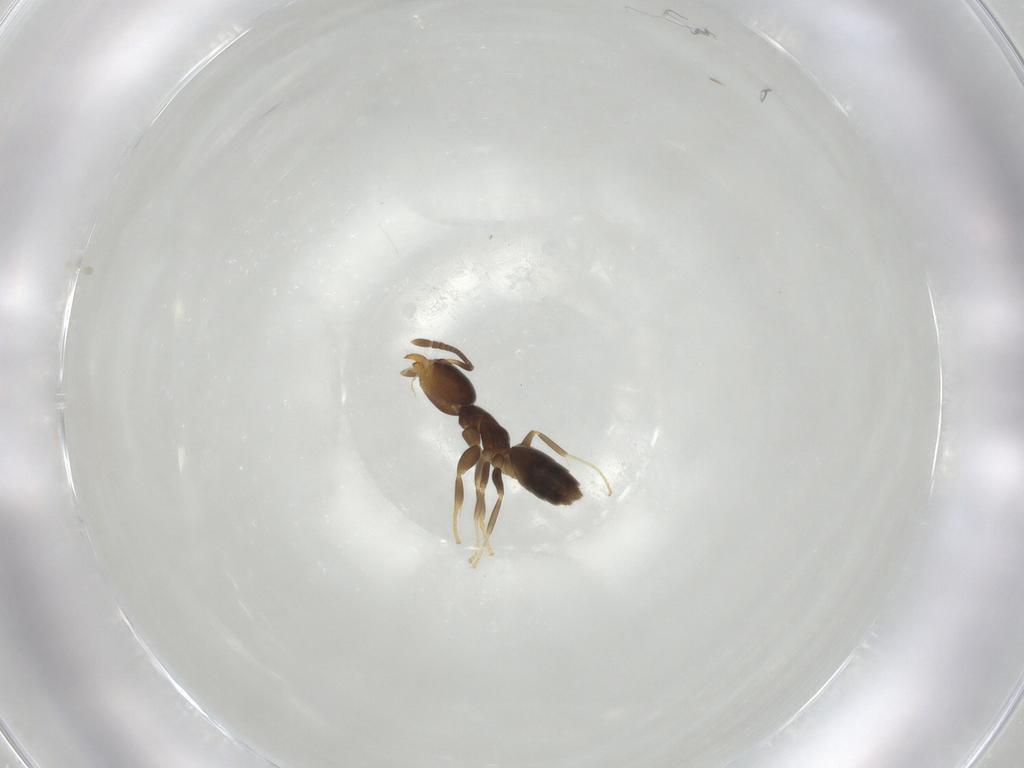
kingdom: Animalia
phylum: Arthropoda
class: Insecta
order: Hymenoptera
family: Formicidae
